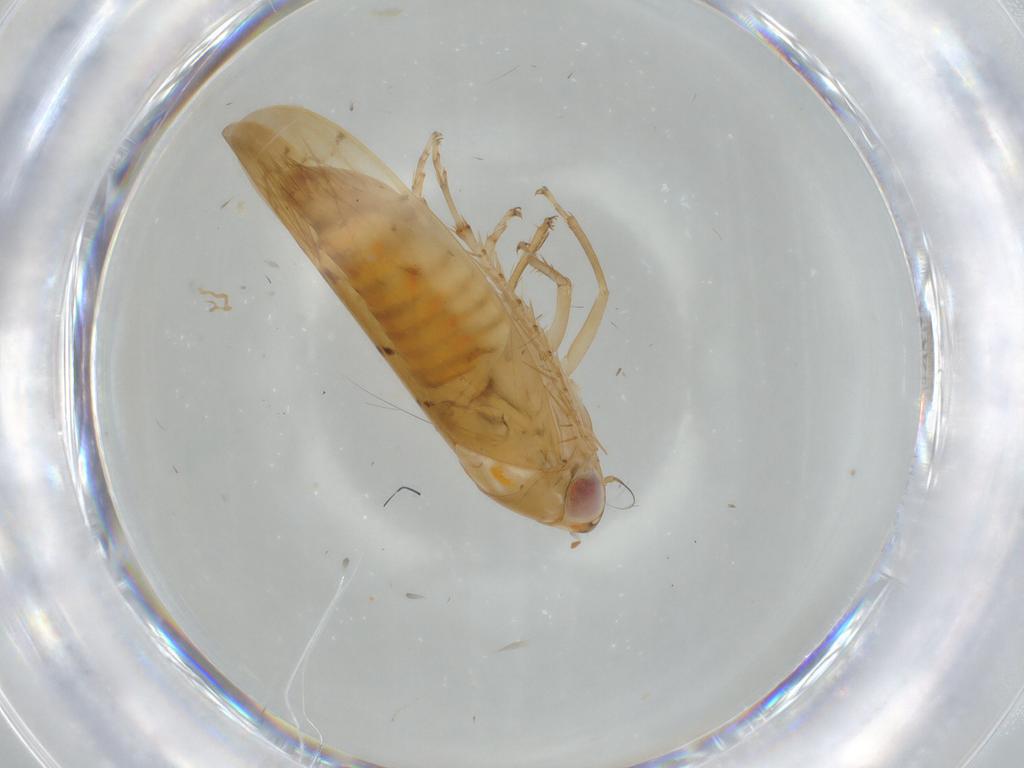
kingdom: Animalia
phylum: Arthropoda
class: Insecta
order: Hemiptera
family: Cicadellidae
